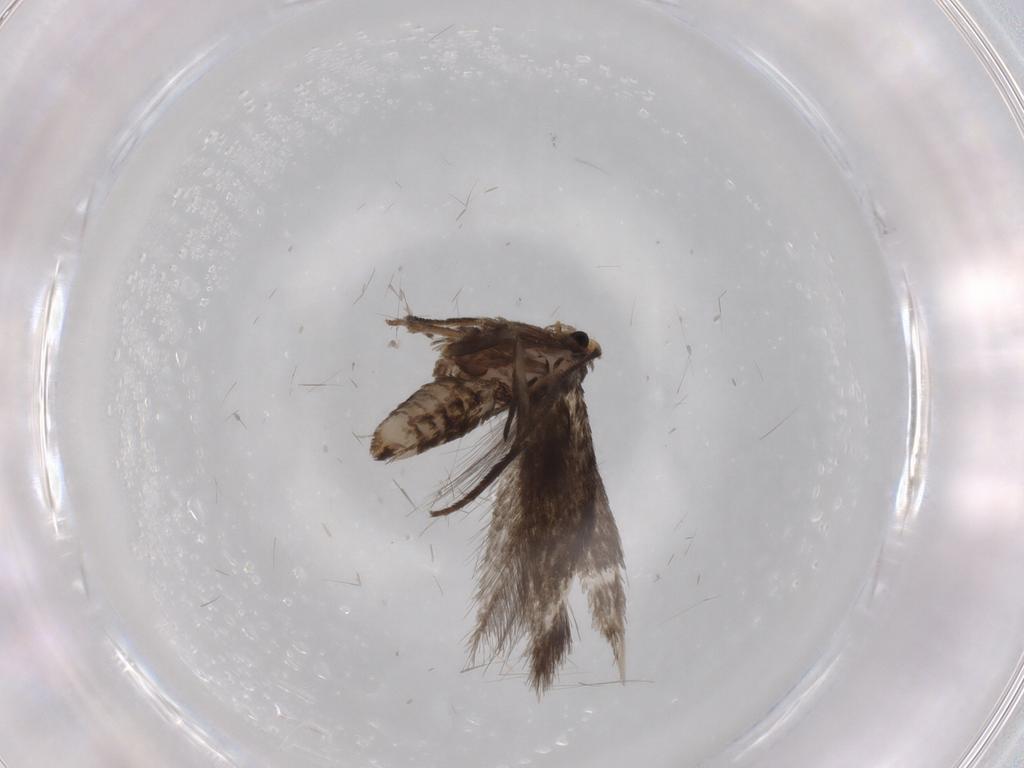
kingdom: Animalia
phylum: Arthropoda
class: Insecta
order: Lepidoptera
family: Nepticulidae
